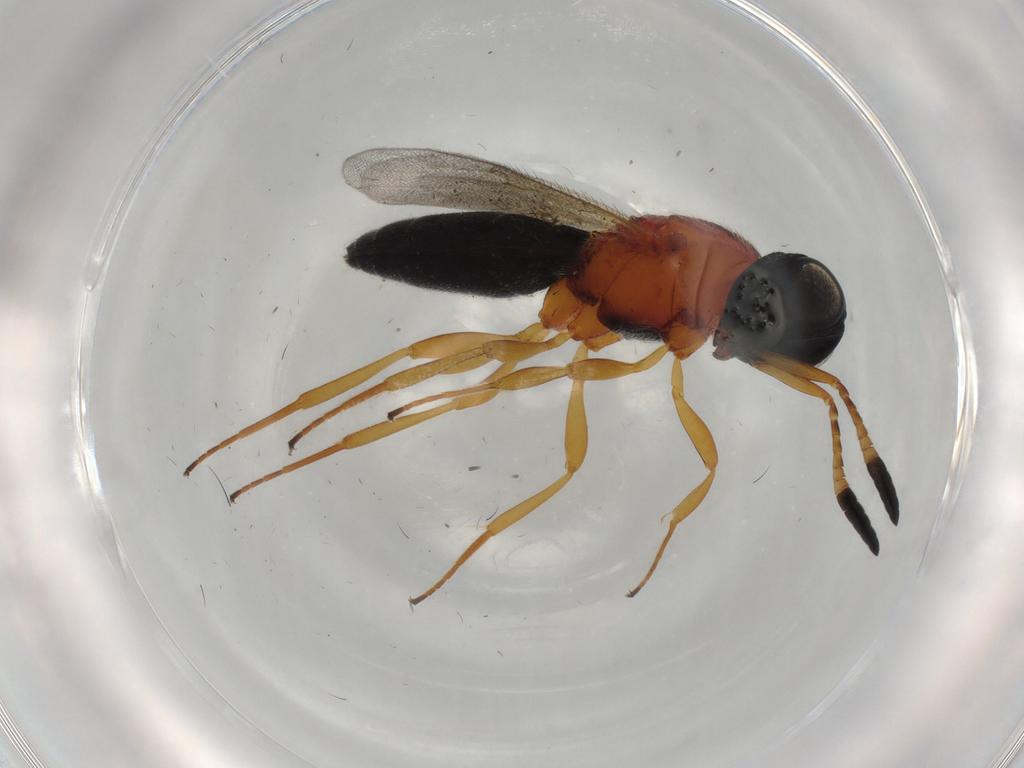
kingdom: Animalia
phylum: Arthropoda
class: Insecta
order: Hymenoptera
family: Scelionidae
